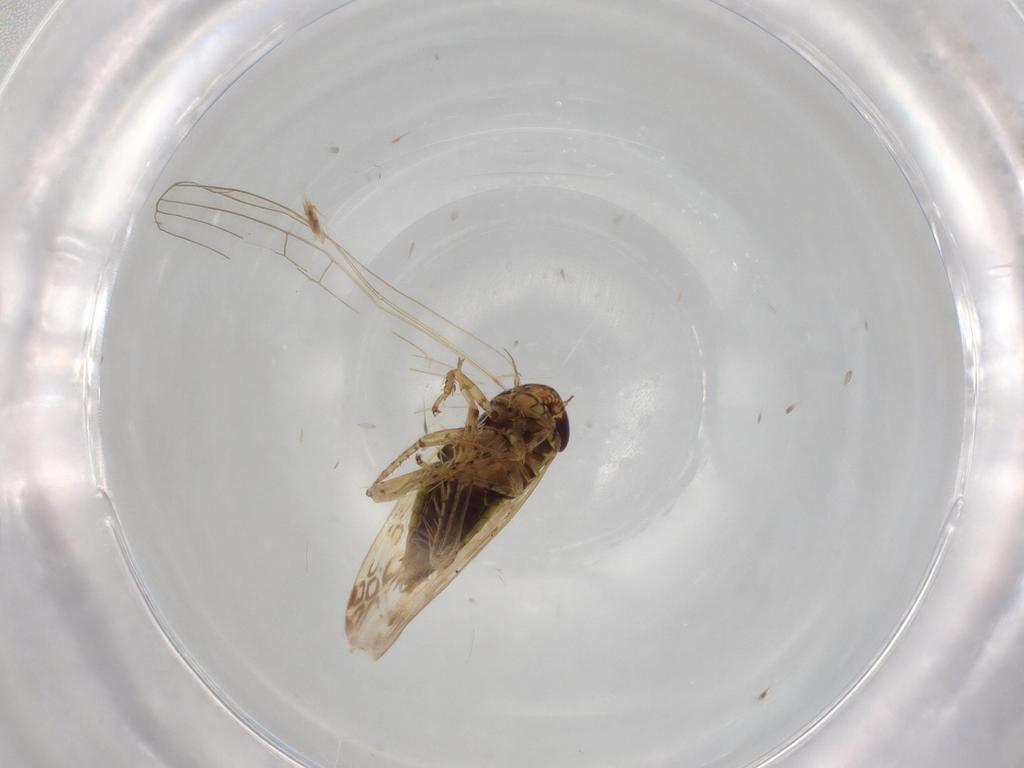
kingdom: Animalia
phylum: Arthropoda
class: Insecta
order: Hemiptera
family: Cicadellidae
